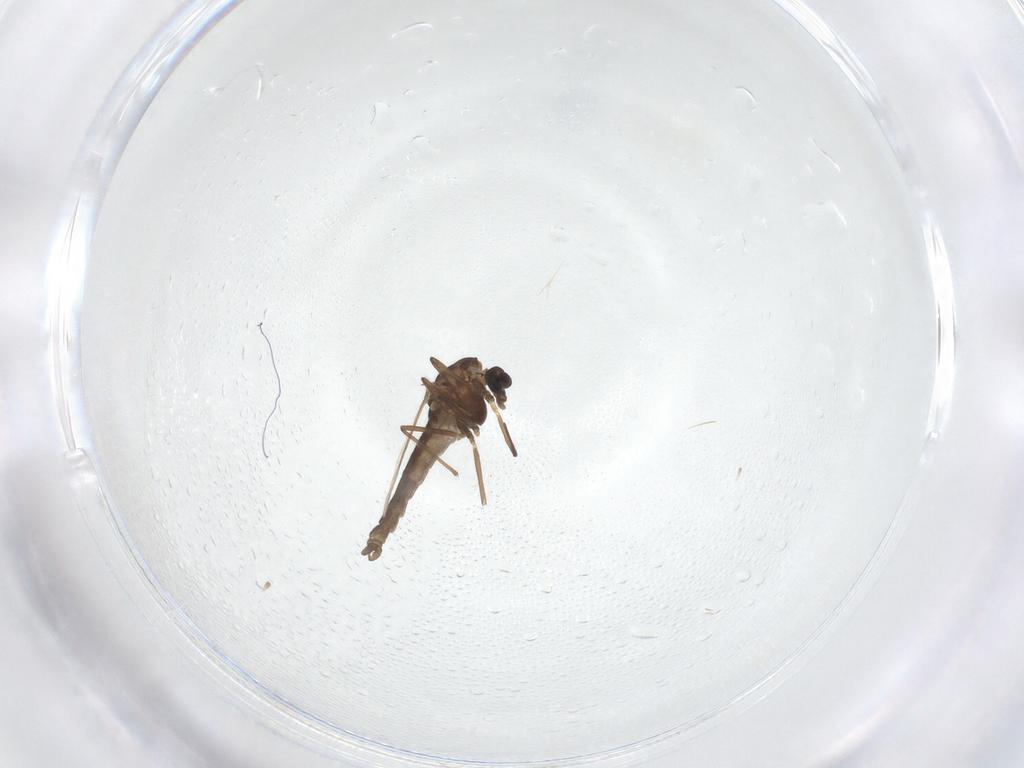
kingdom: Animalia
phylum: Arthropoda
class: Insecta
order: Diptera
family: Chironomidae
